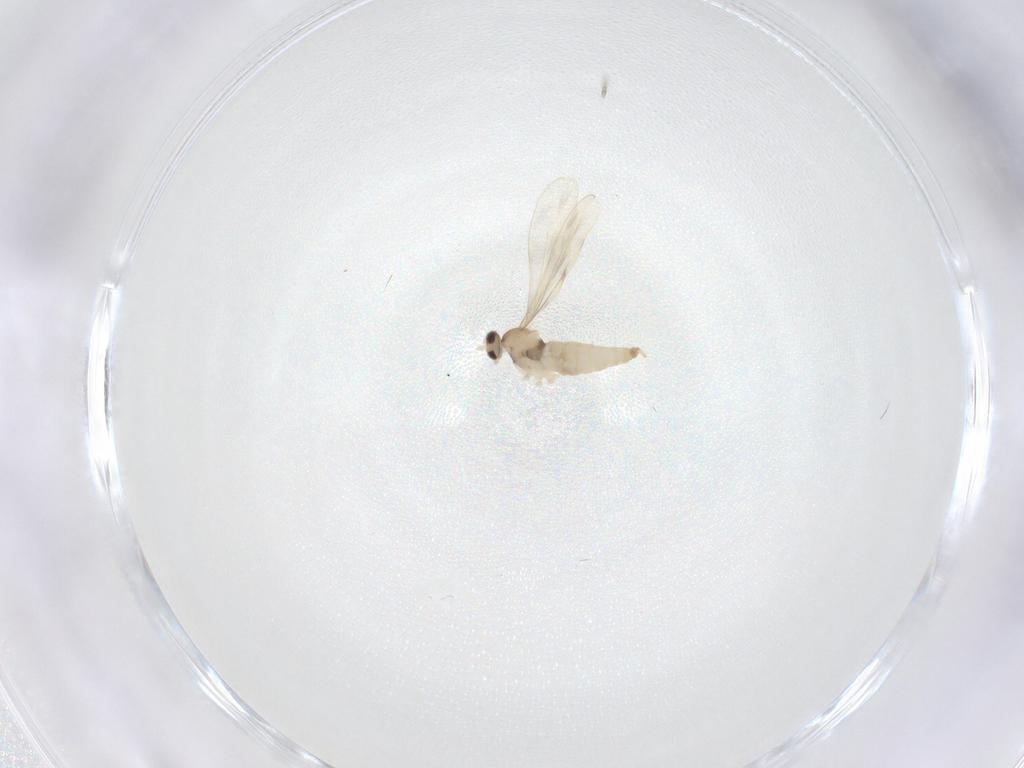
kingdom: Animalia
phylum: Arthropoda
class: Insecta
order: Diptera
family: Cecidomyiidae
